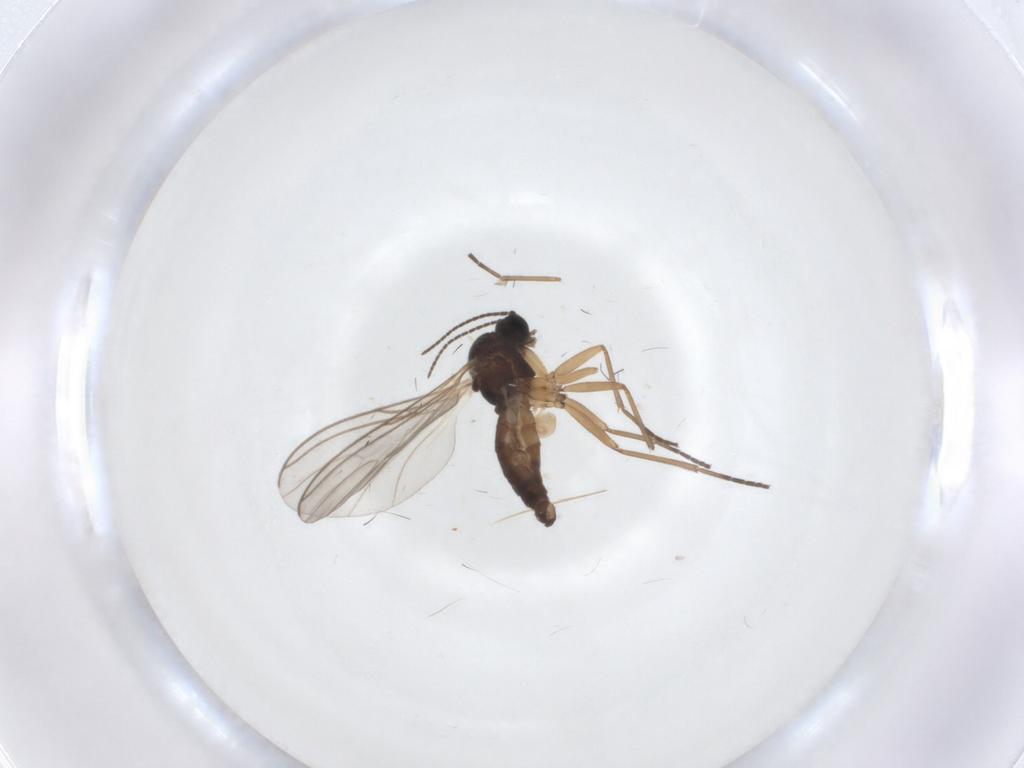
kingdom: Animalia
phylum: Arthropoda
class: Insecta
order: Diptera
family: Sciaridae
